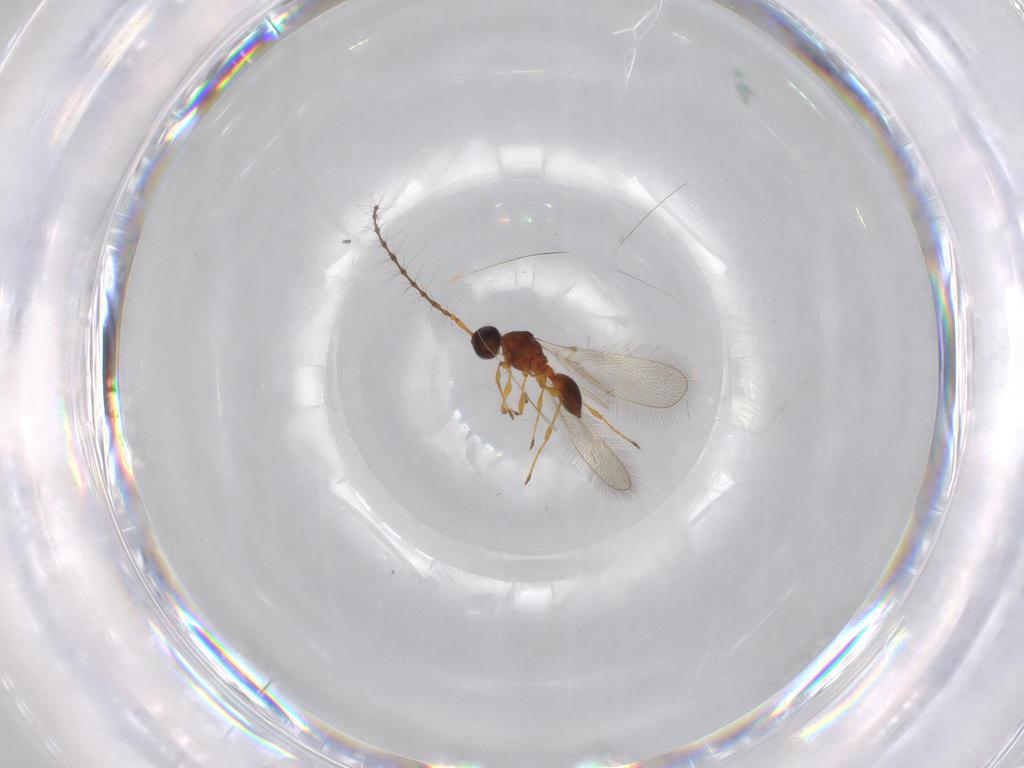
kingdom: Animalia
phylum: Arthropoda
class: Insecta
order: Hymenoptera
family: Diapriidae
